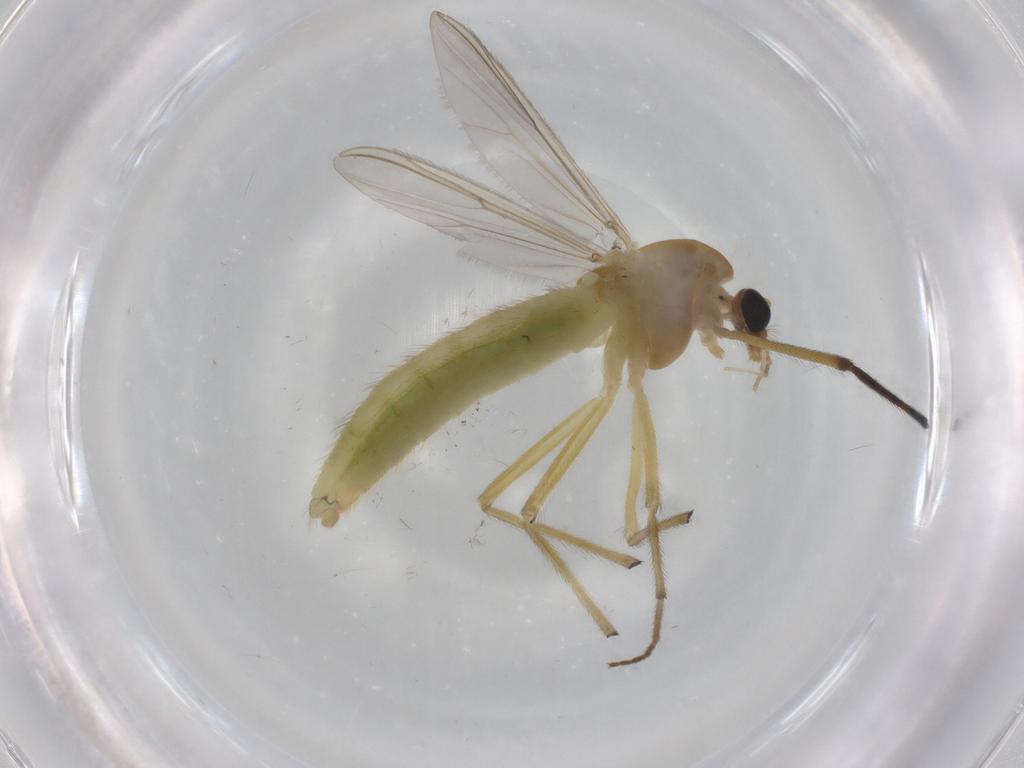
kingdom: Animalia
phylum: Arthropoda
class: Insecta
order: Diptera
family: Chironomidae
